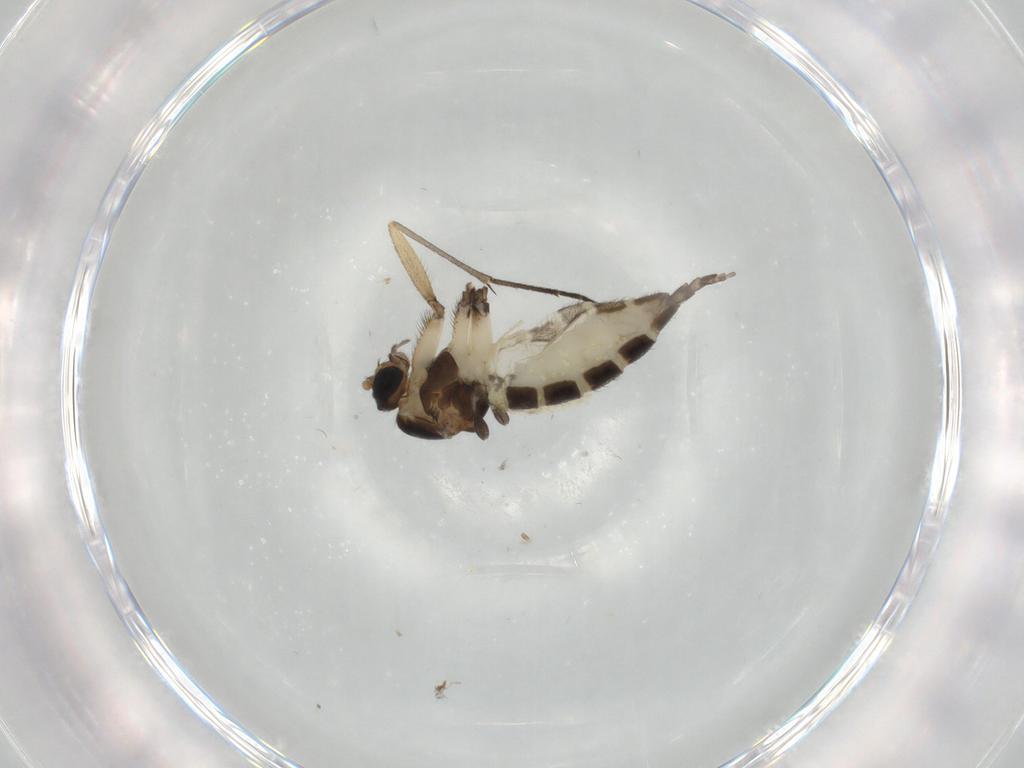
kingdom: Animalia
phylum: Arthropoda
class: Insecta
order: Diptera
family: Sciaridae
